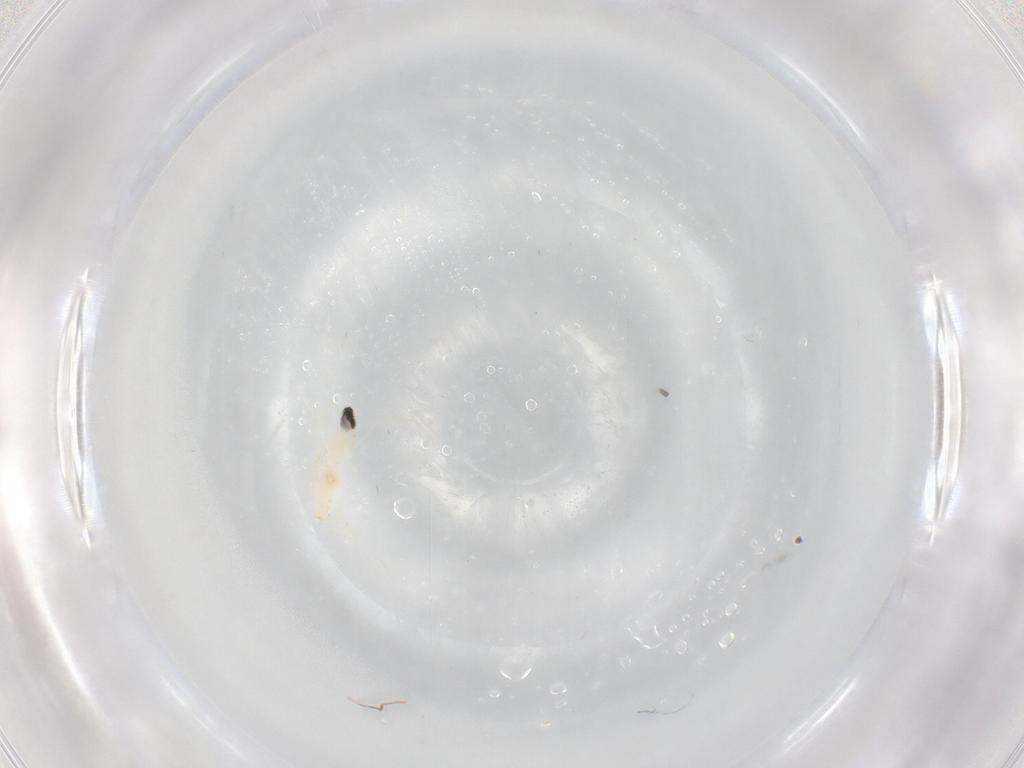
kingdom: Animalia
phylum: Arthropoda
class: Insecta
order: Diptera
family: Cecidomyiidae
